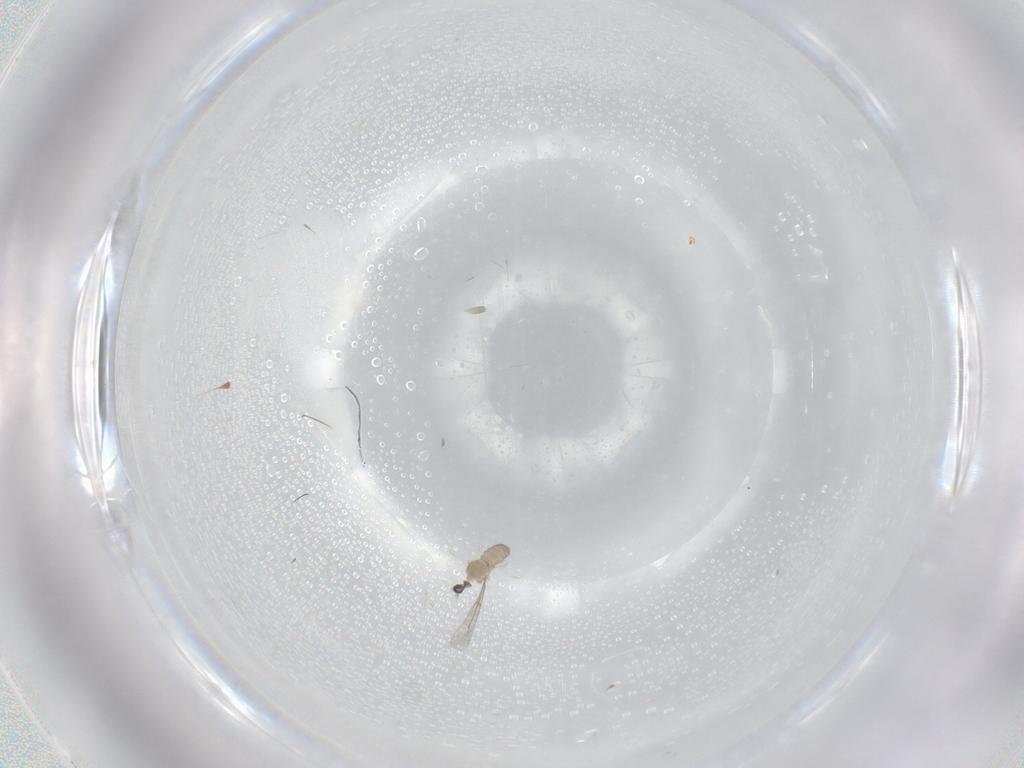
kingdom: Animalia
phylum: Arthropoda
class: Insecta
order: Diptera
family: Cecidomyiidae
